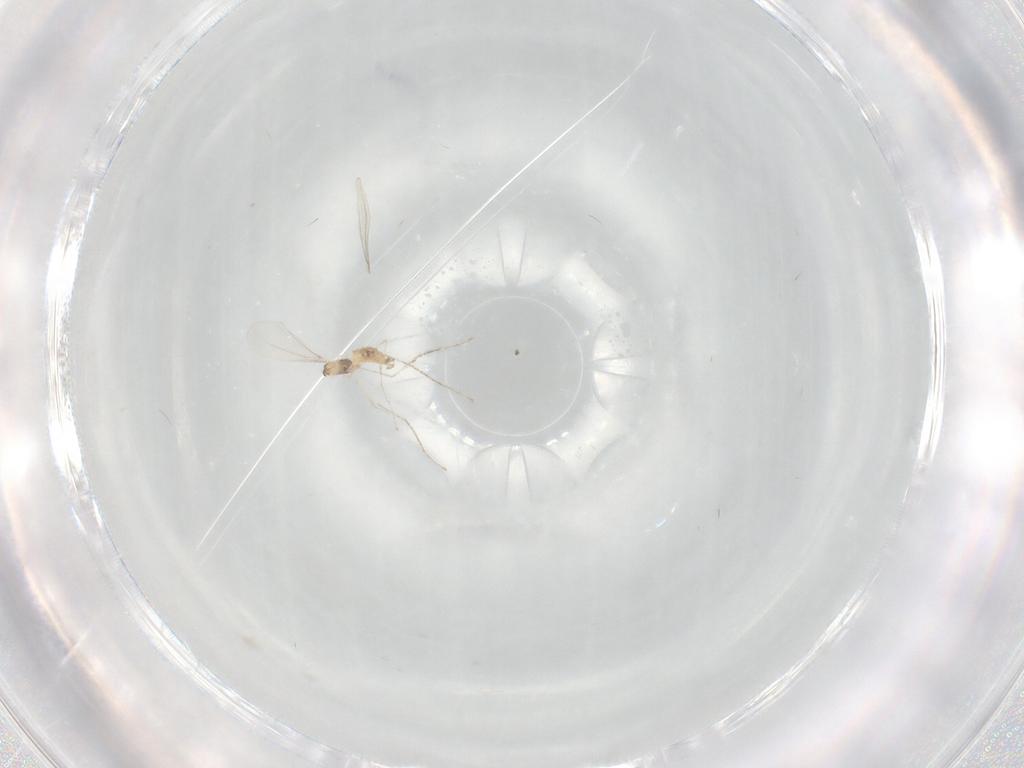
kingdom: Animalia
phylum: Arthropoda
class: Insecta
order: Diptera
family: Cecidomyiidae
